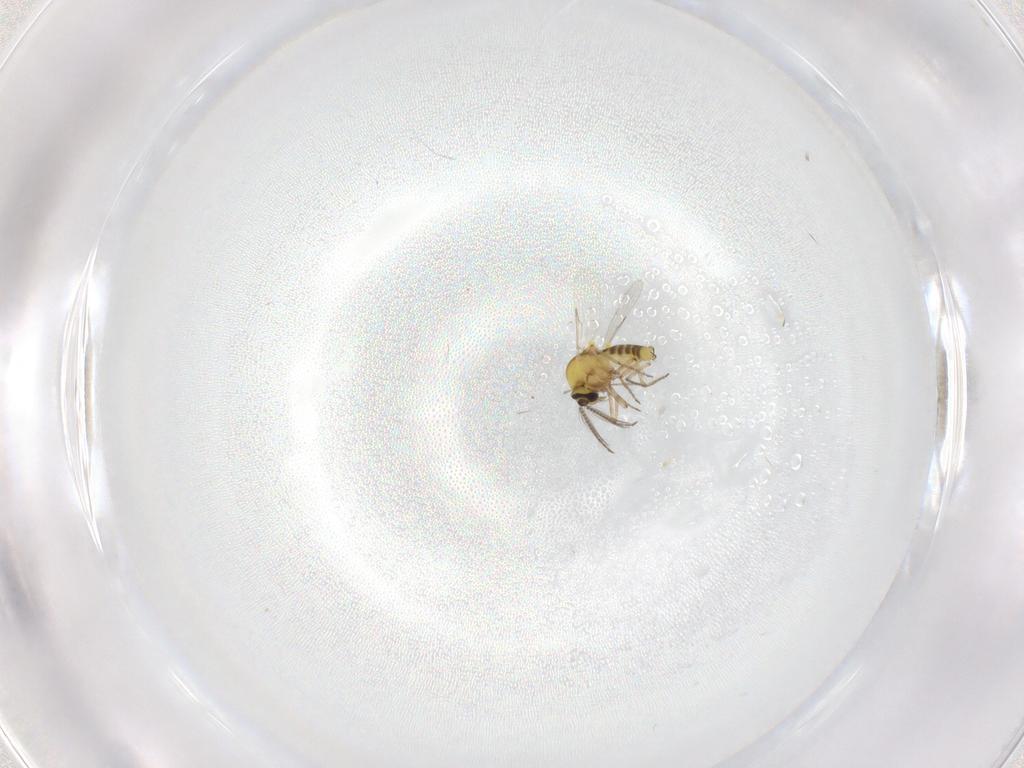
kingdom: Animalia
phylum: Arthropoda
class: Insecta
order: Diptera
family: Ceratopogonidae
